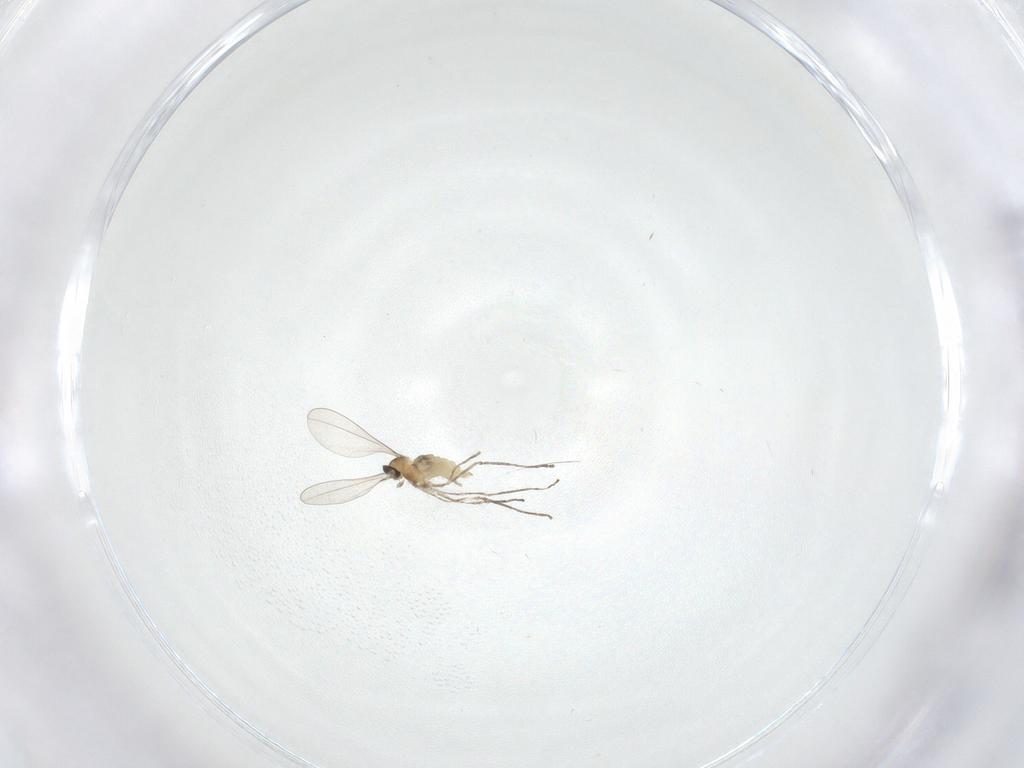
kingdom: Animalia
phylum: Arthropoda
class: Insecta
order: Diptera
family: Cecidomyiidae
